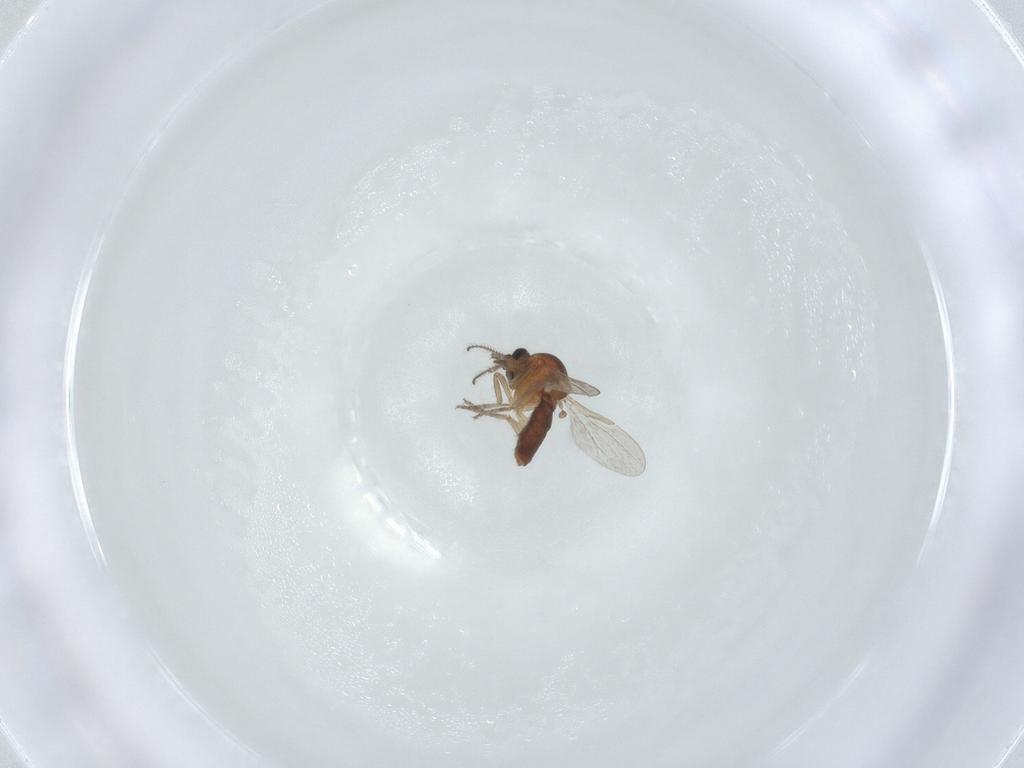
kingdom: Animalia
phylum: Arthropoda
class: Insecta
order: Diptera
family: Ceratopogonidae
